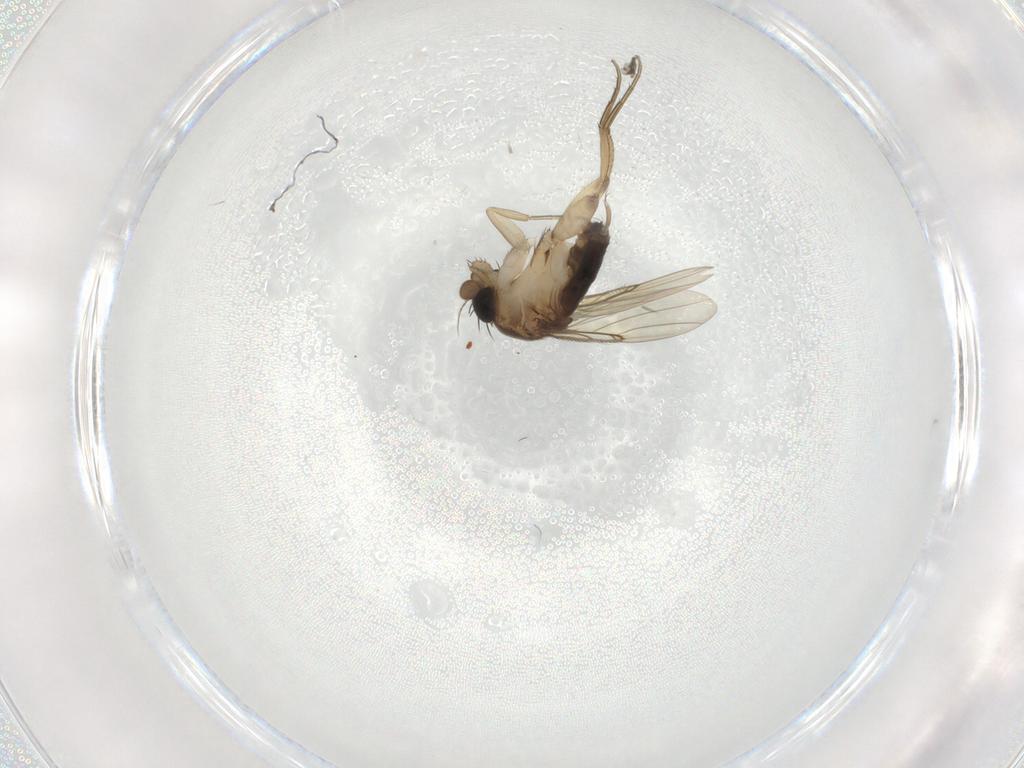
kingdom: Animalia
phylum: Arthropoda
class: Insecta
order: Diptera
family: Phoridae
